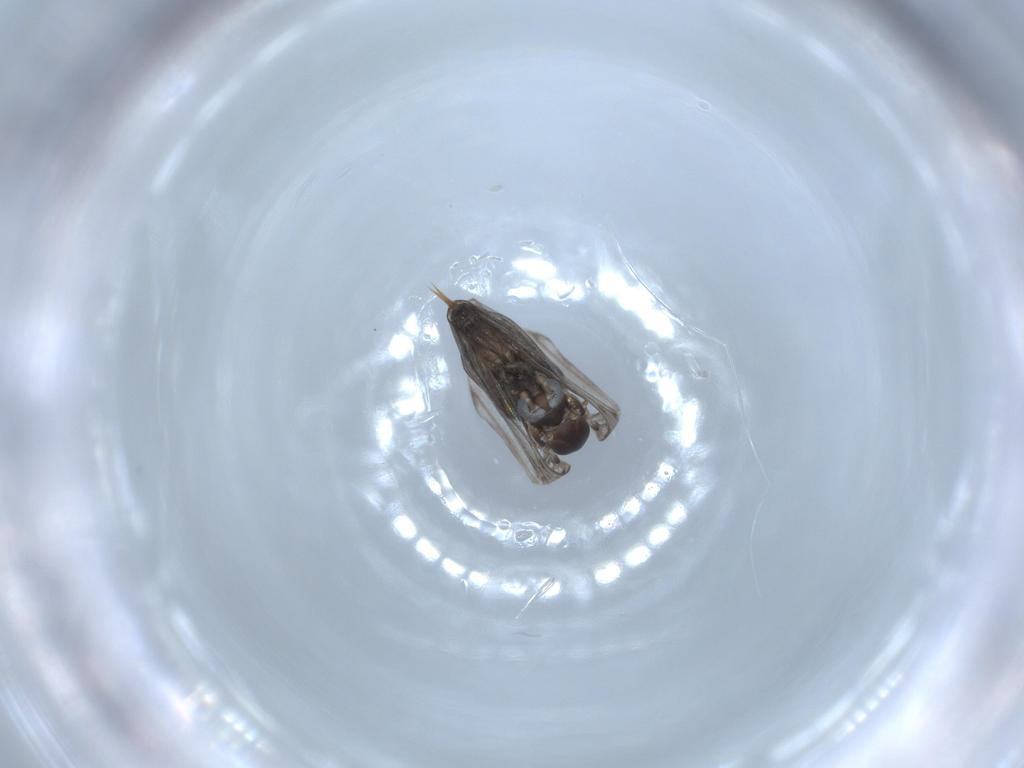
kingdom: Animalia
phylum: Arthropoda
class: Insecta
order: Diptera
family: Psychodidae
